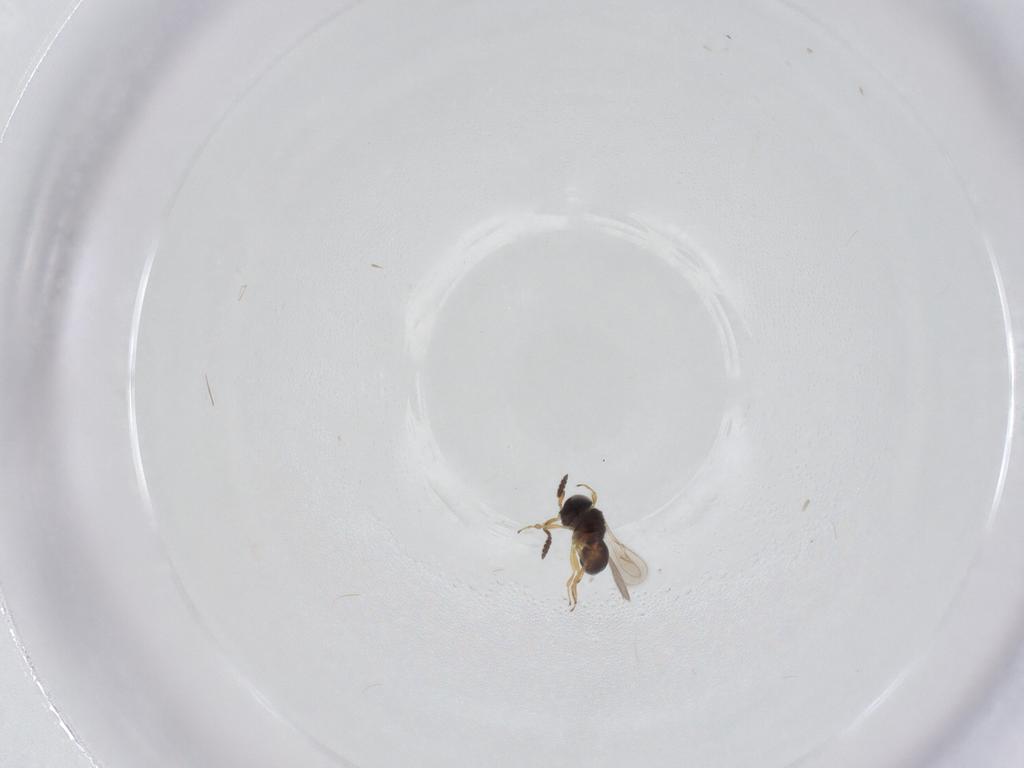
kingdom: Animalia
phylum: Arthropoda
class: Insecta
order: Hymenoptera
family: Scelionidae
